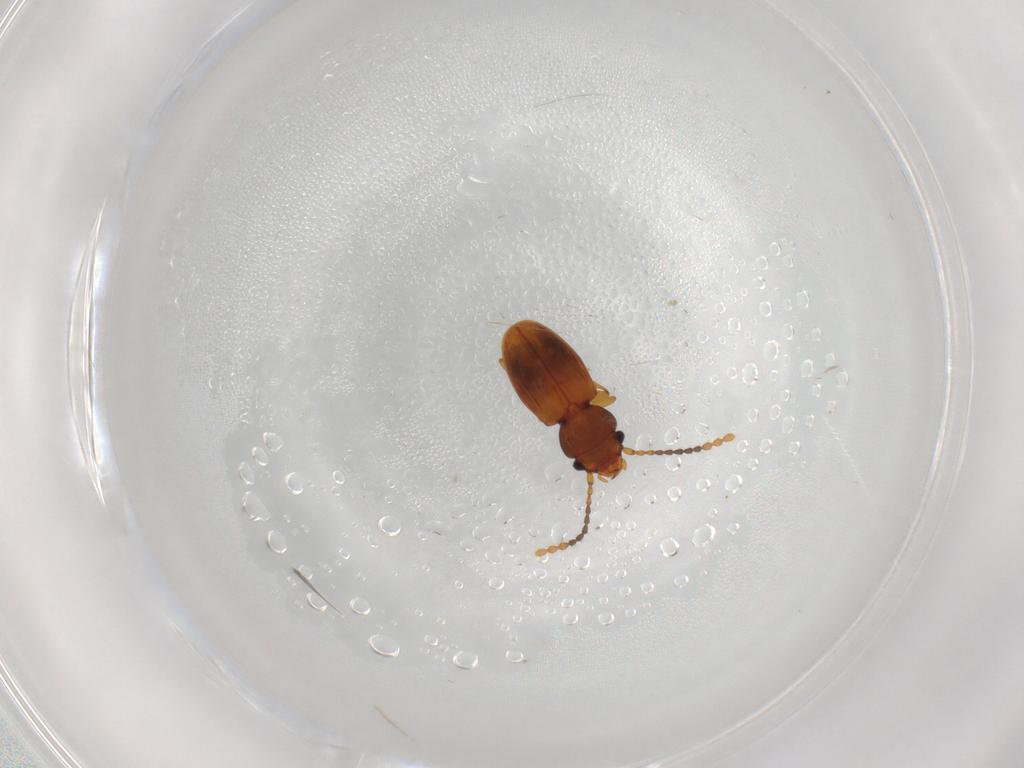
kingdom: Animalia
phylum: Arthropoda
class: Insecta
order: Coleoptera
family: Laemophloeidae
